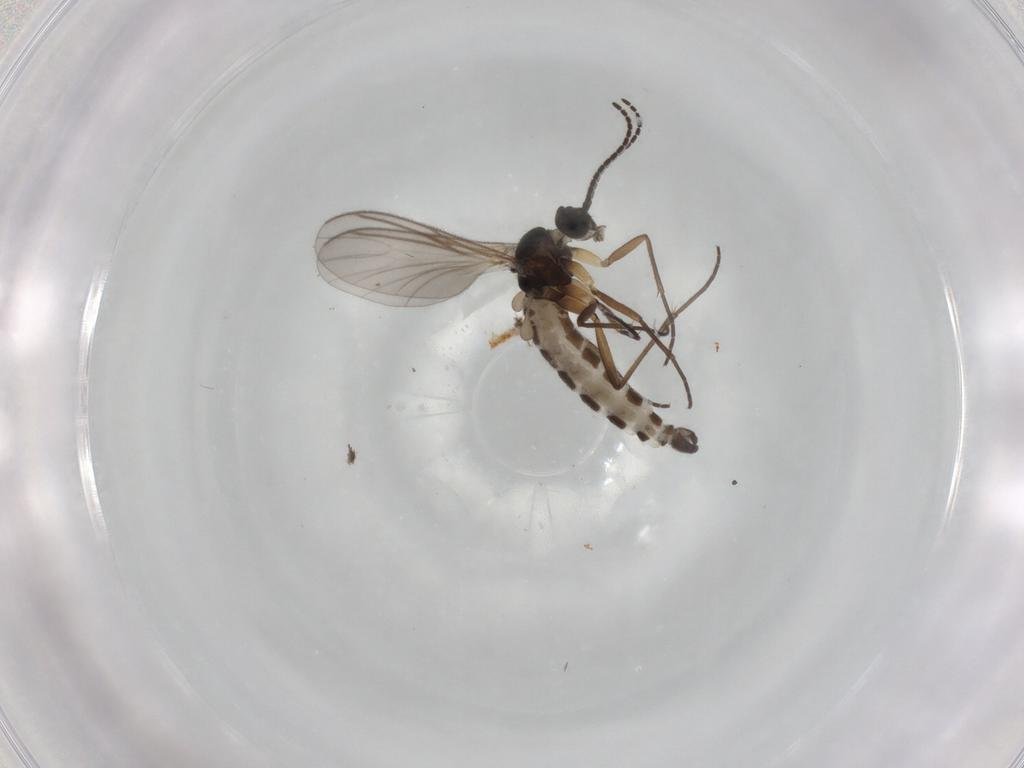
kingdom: Animalia
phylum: Arthropoda
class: Insecta
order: Diptera
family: Sciaridae
